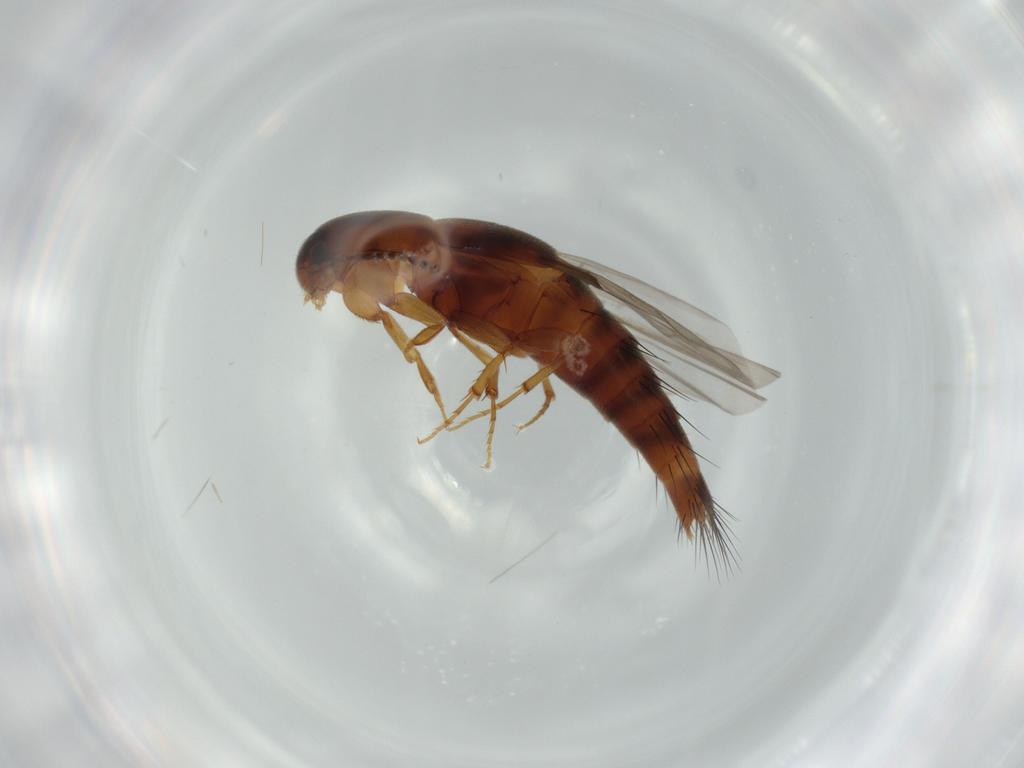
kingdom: Animalia
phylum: Arthropoda
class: Insecta
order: Coleoptera
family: Staphylinidae
